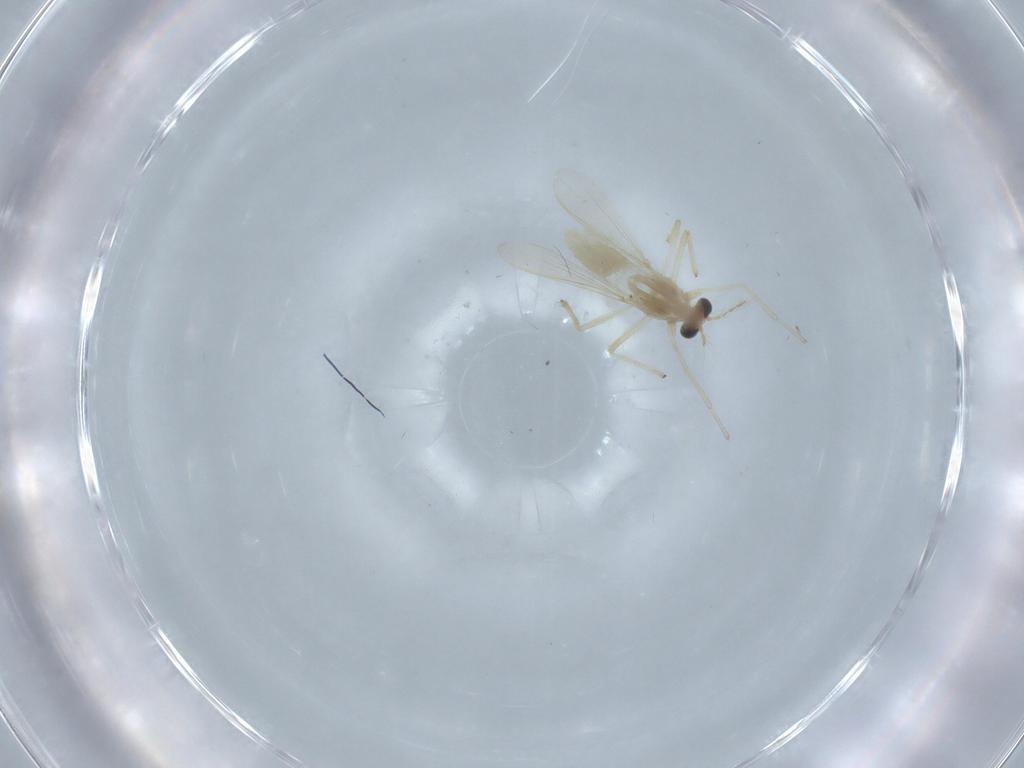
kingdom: Animalia
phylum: Arthropoda
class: Insecta
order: Diptera
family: Chironomidae
